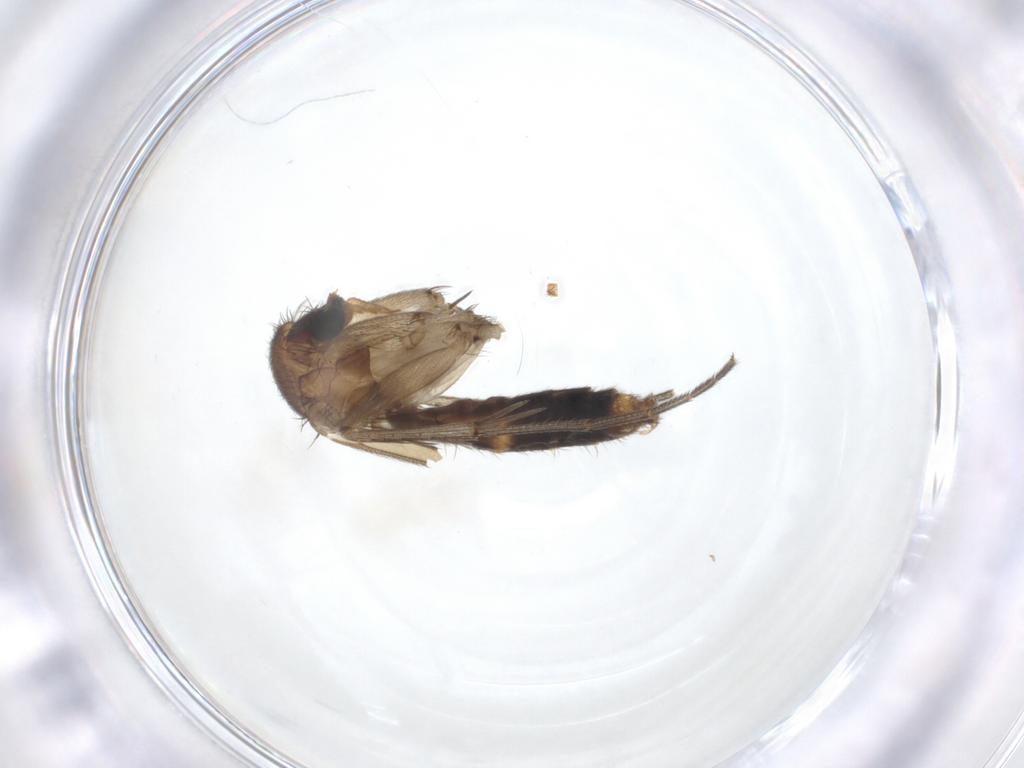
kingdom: Animalia
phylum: Arthropoda
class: Insecta
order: Diptera
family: Hybotidae
